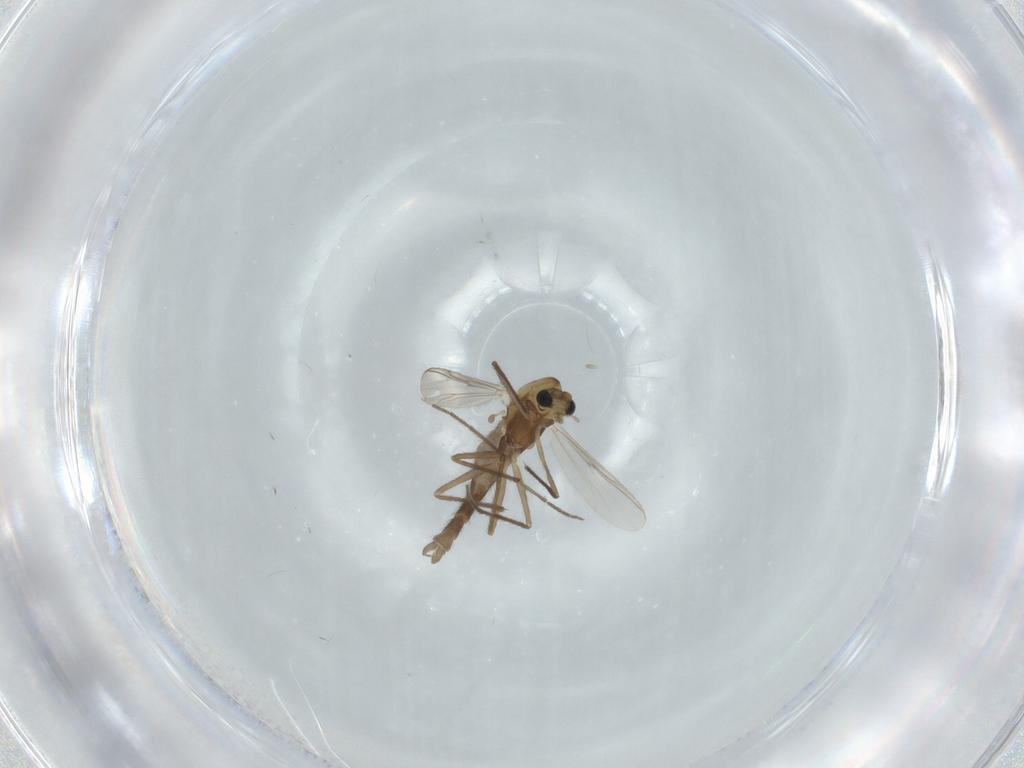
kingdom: Animalia
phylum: Arthropoda
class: Insecta
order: Diptera
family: Chironomidae
